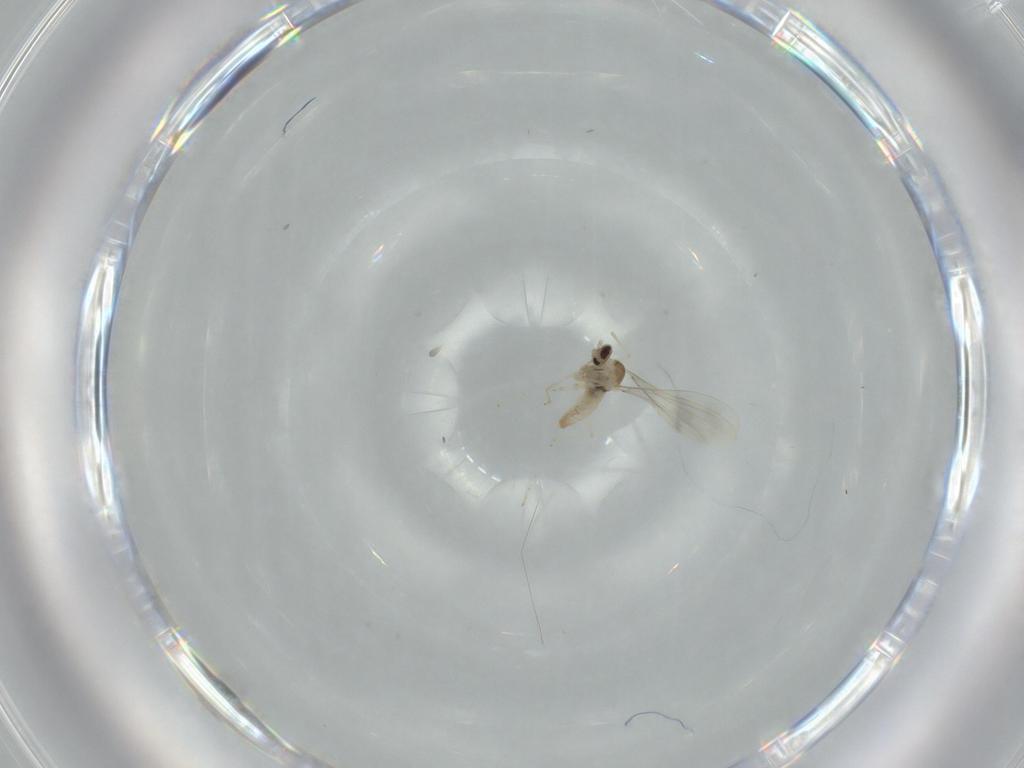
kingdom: Animalia
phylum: Arthropoda
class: Insecta
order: Diptera
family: Cecidomyiidae
